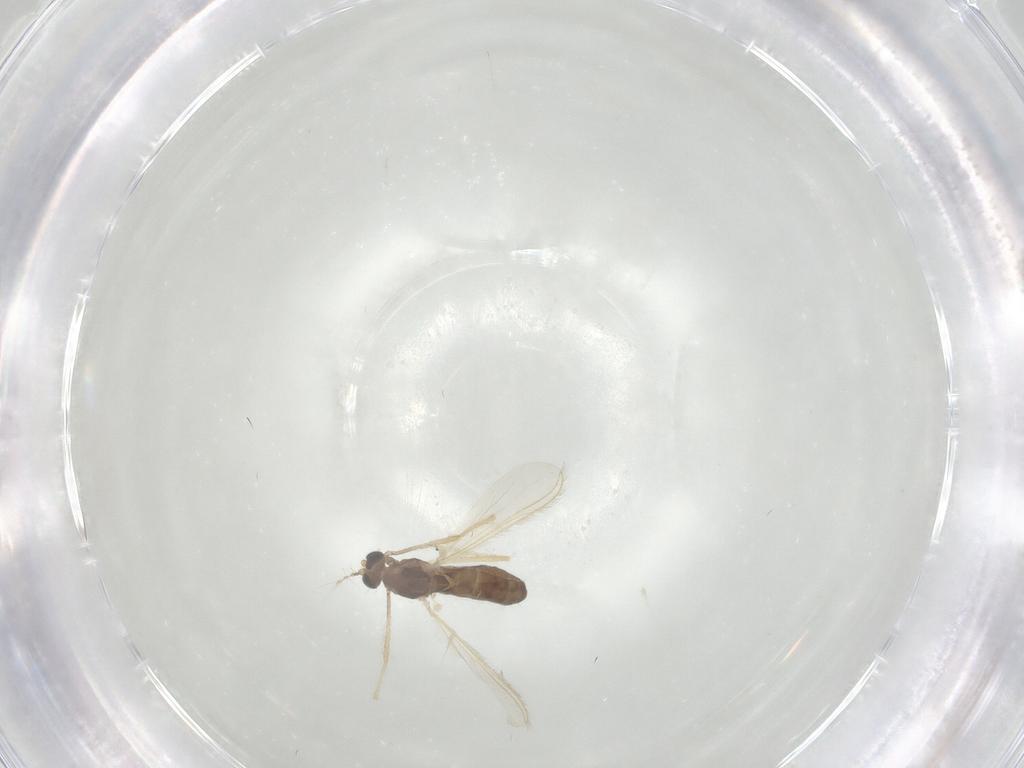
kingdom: Animalia
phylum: Arthropoda
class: Insecta
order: Diptera
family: Chironomidae
